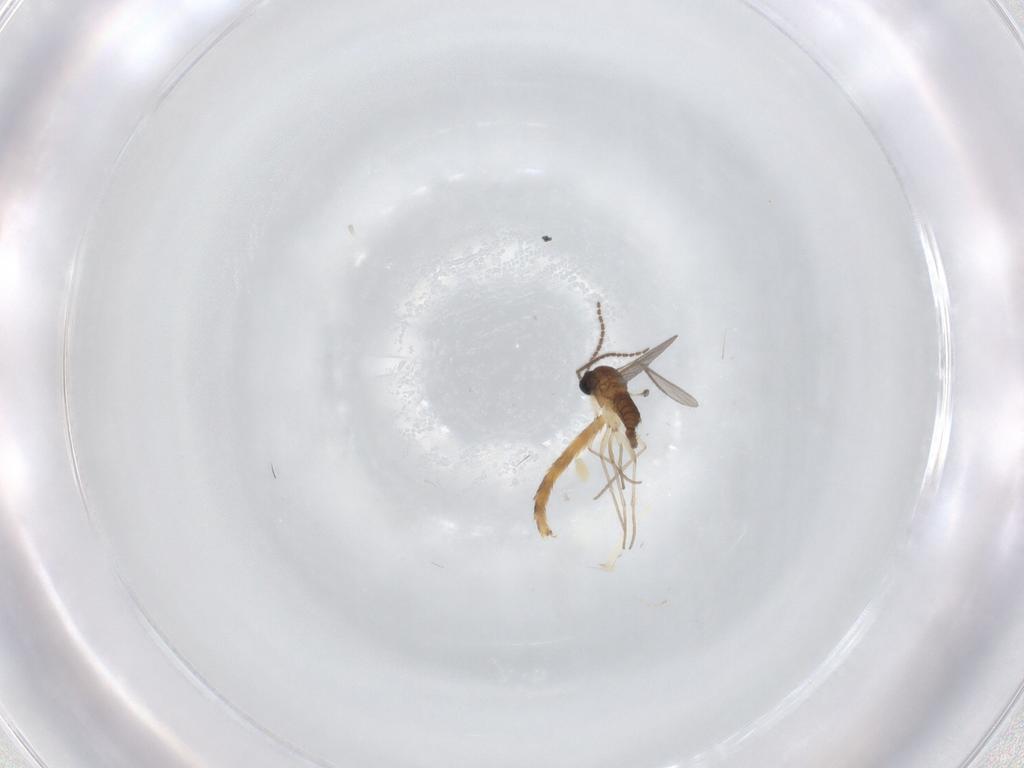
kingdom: Animalia
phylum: Arthropoda
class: Insecta
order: Diptera
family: Sciaridae
